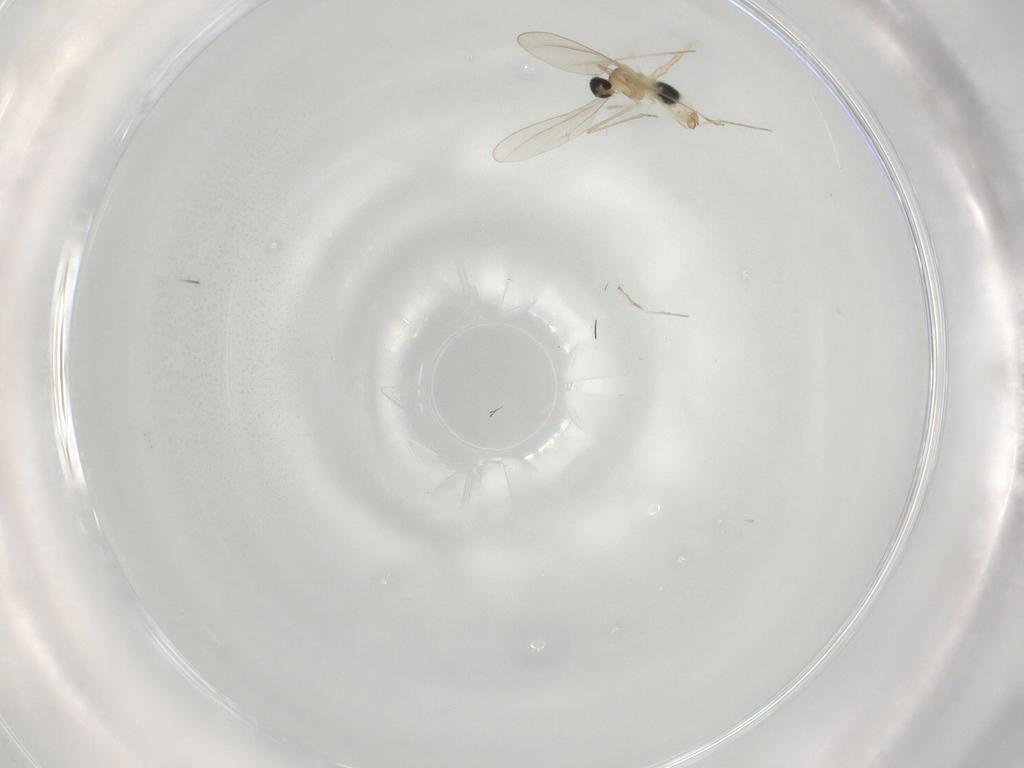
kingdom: Animalia
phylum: Arthropoda
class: Insecta
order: Diptera
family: Cecidomyiidae
